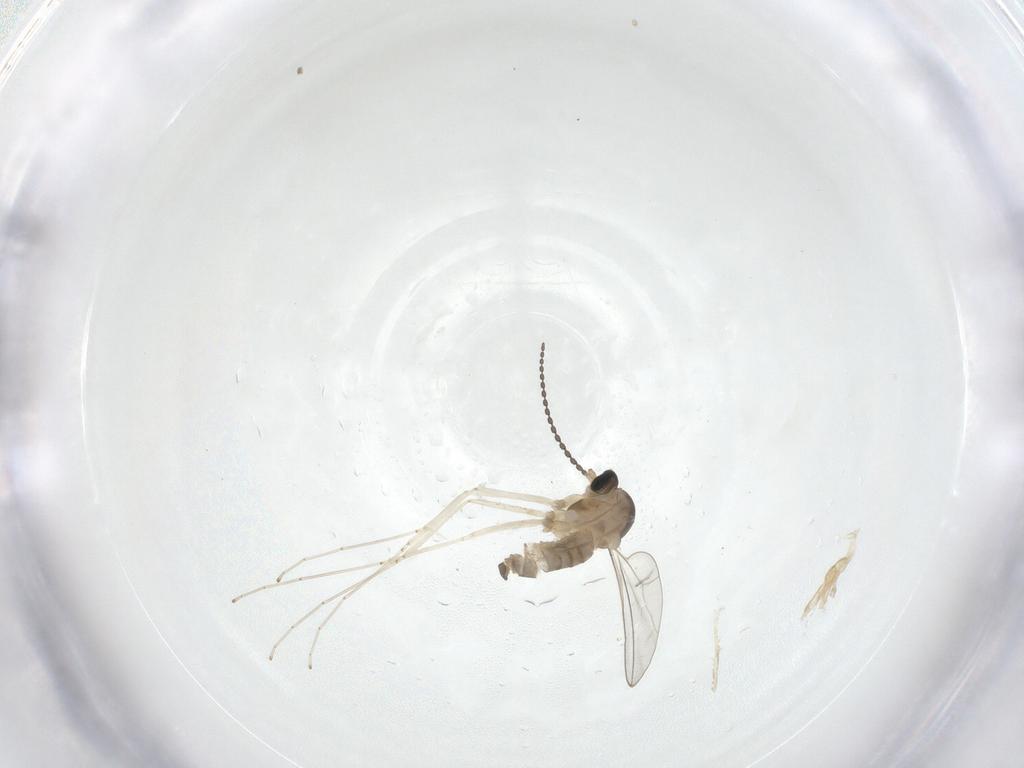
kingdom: Animalia
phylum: Arthropoda
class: Insecta
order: Diptera
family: Cecidomyiidae
